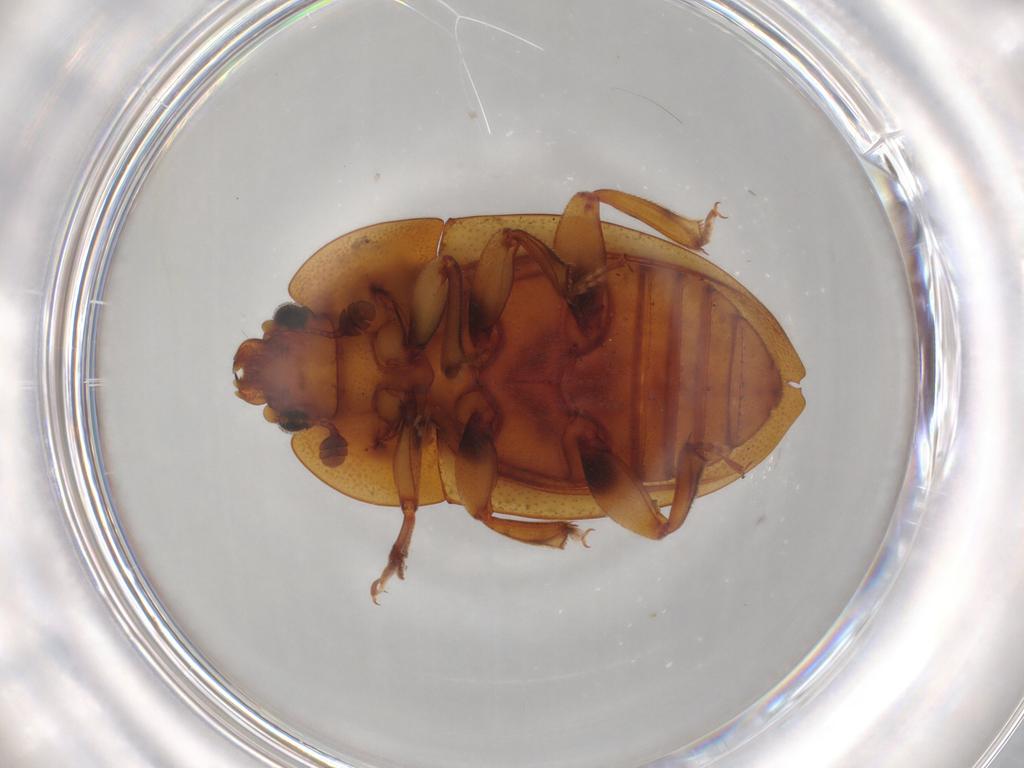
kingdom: Animalia
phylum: Arthropoda
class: Insecta
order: Coleoptera
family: Nitidulidae
